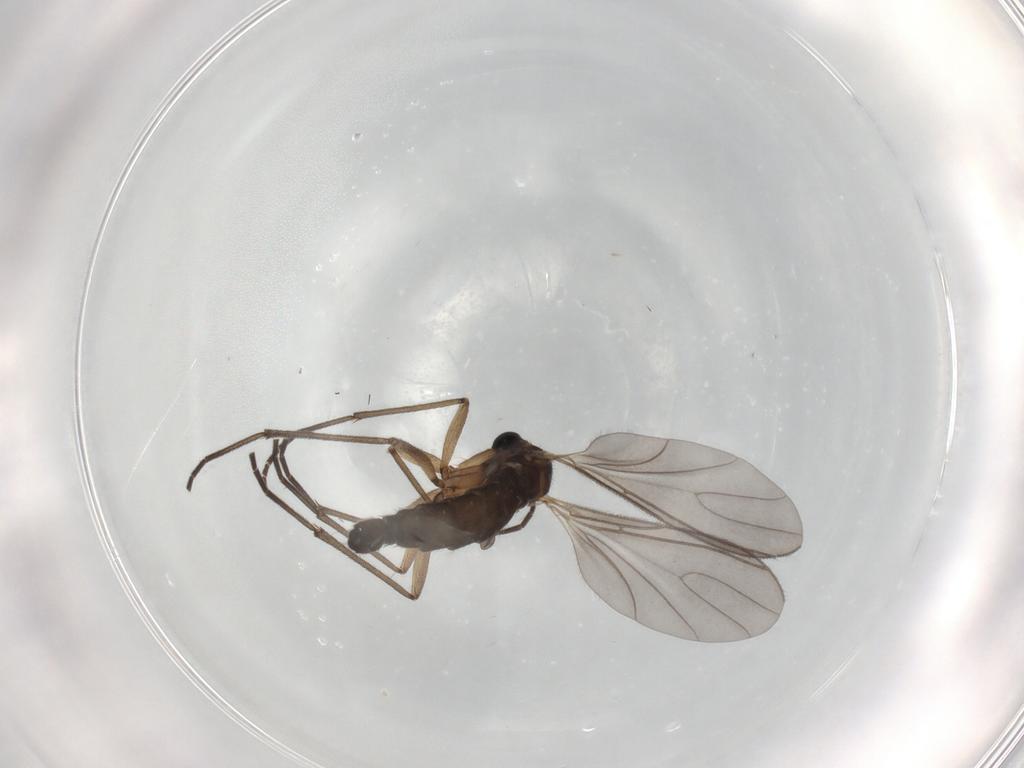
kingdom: Animalia
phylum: Arthropoda
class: Insecta
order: Diptera
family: Sciaridae
